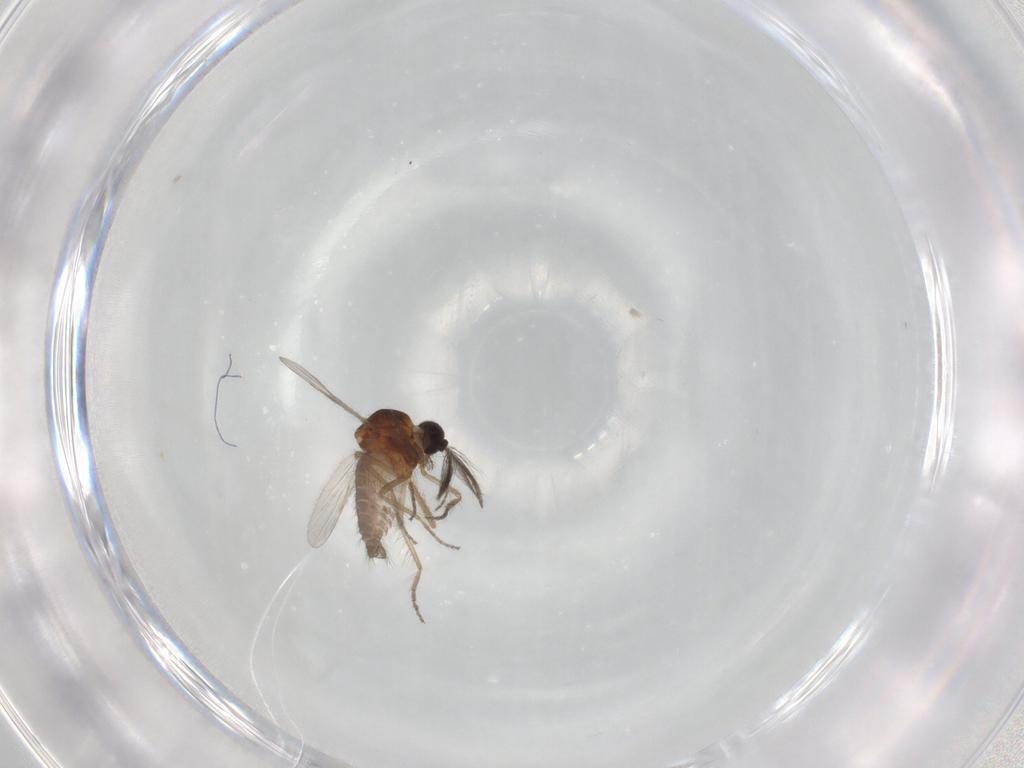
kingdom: Animalia
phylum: Arthropoda
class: Insecta
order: Diptera
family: Ceratopogonidae
